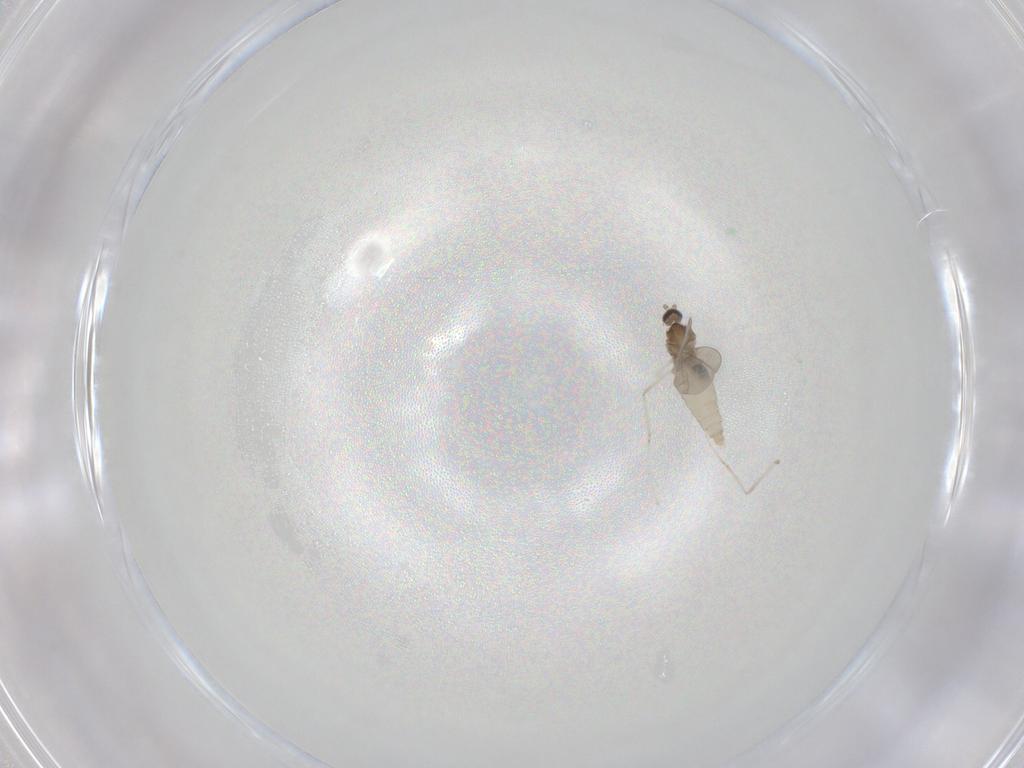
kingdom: Animalia
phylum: Arthropoda
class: Insecta
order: Diptera
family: Cecidomyiidae
